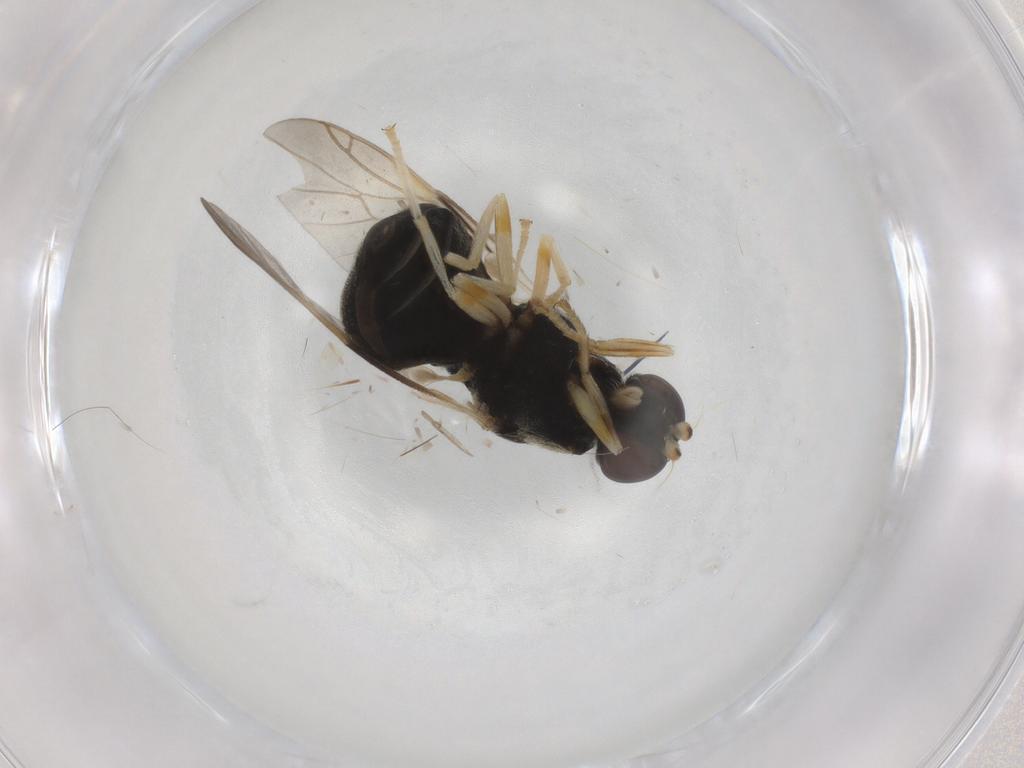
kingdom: Animalia
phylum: Arthropoda
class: Insecta
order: Diptera
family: Stratiomyidae
